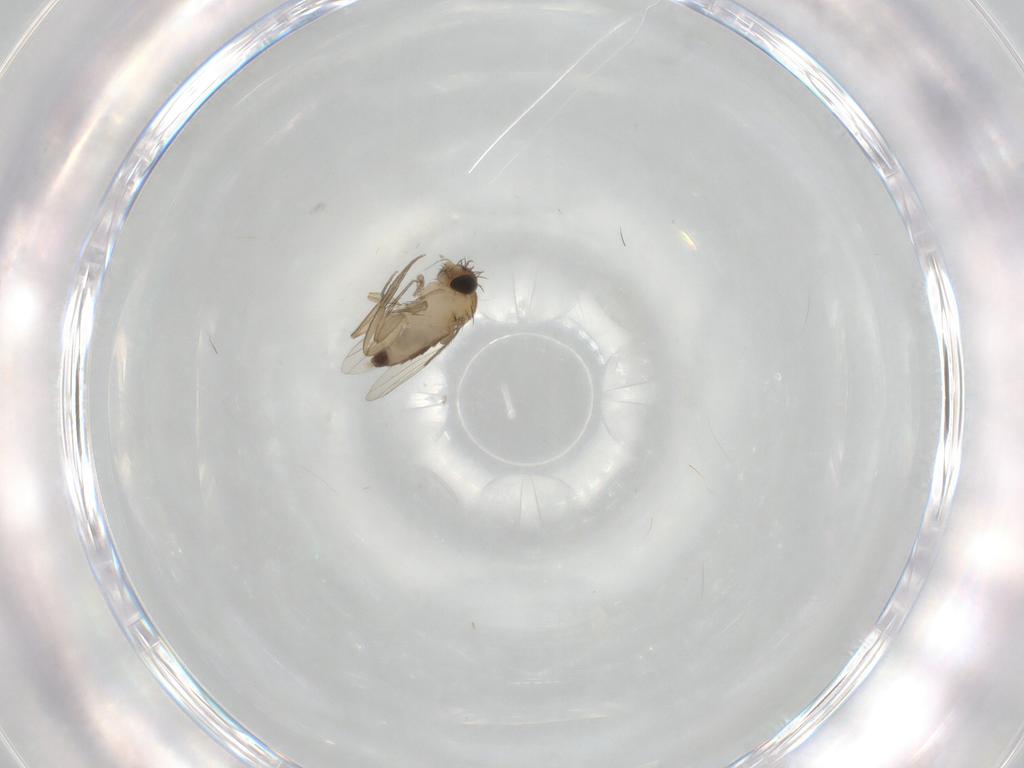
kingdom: Animalia
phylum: Arthropoda
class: Insecta
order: Diptera
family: Phoridae
